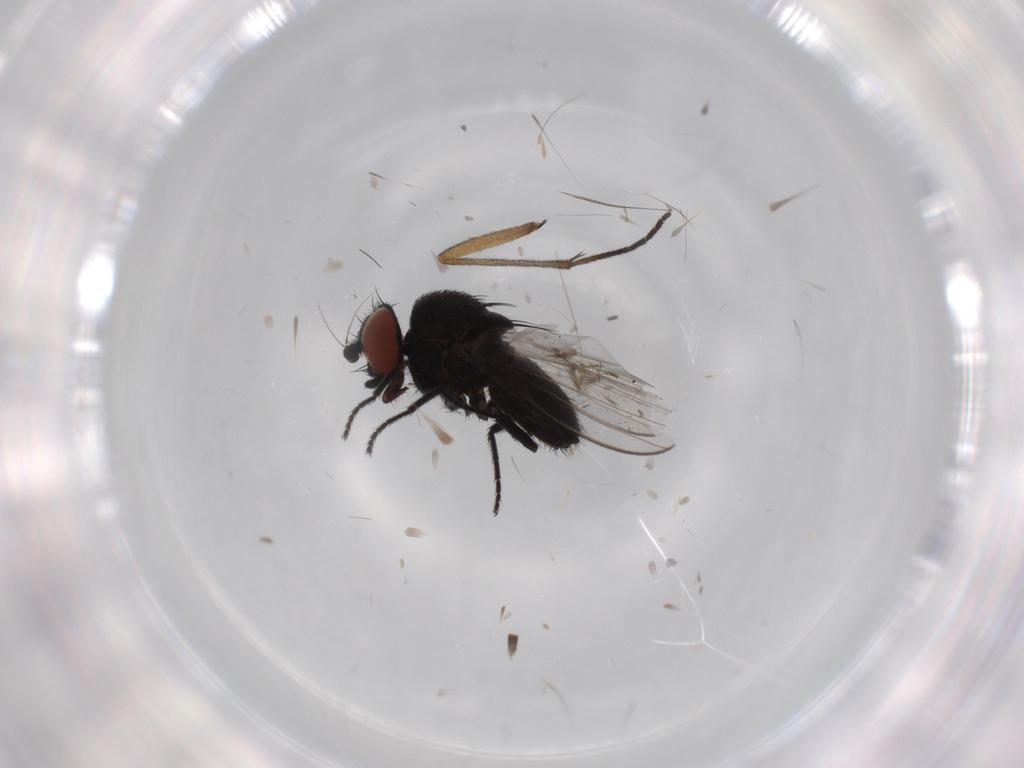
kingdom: Animalia
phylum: Arthropoda
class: Insecta
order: Diptera
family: Milichiidae
